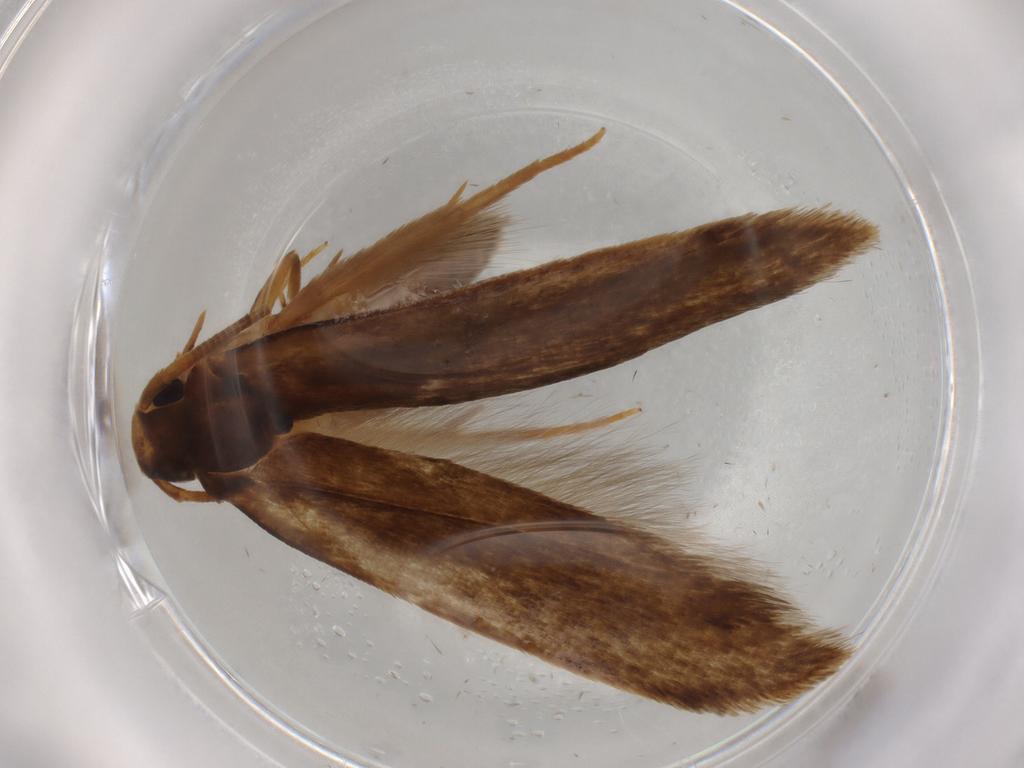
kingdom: Animalia
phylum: Arthropoda
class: Insecta
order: Lepidoptera
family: Tineidae
